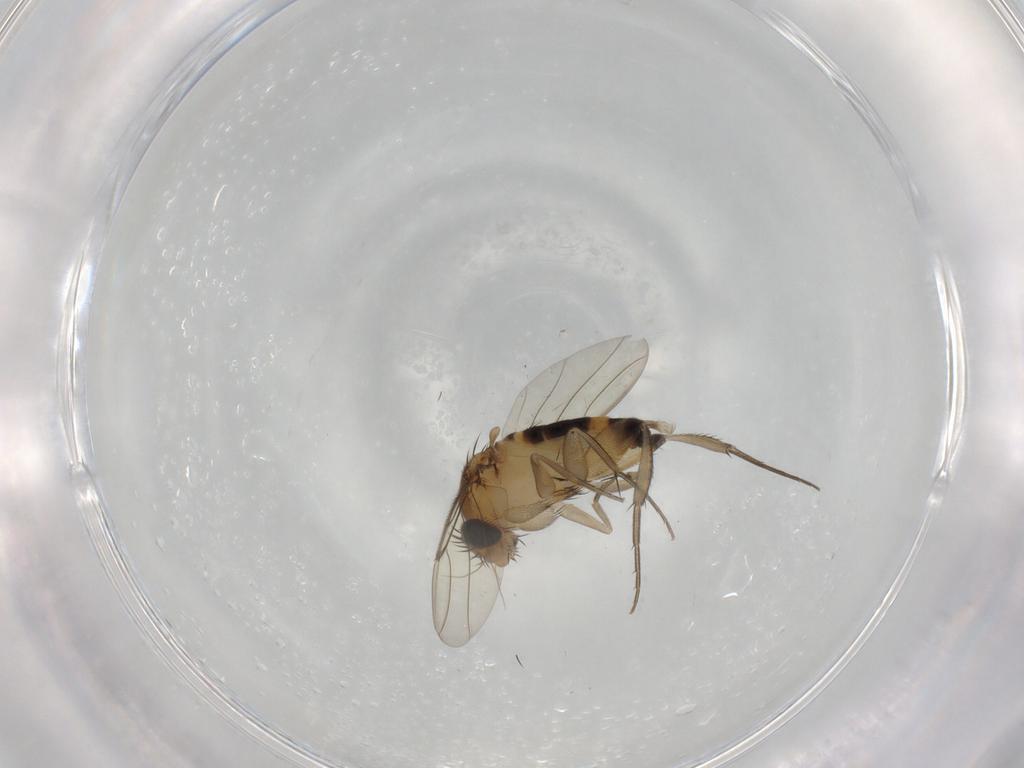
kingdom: Animalia
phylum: Arthropoda
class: Insecta
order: Diptera
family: Phoridae
